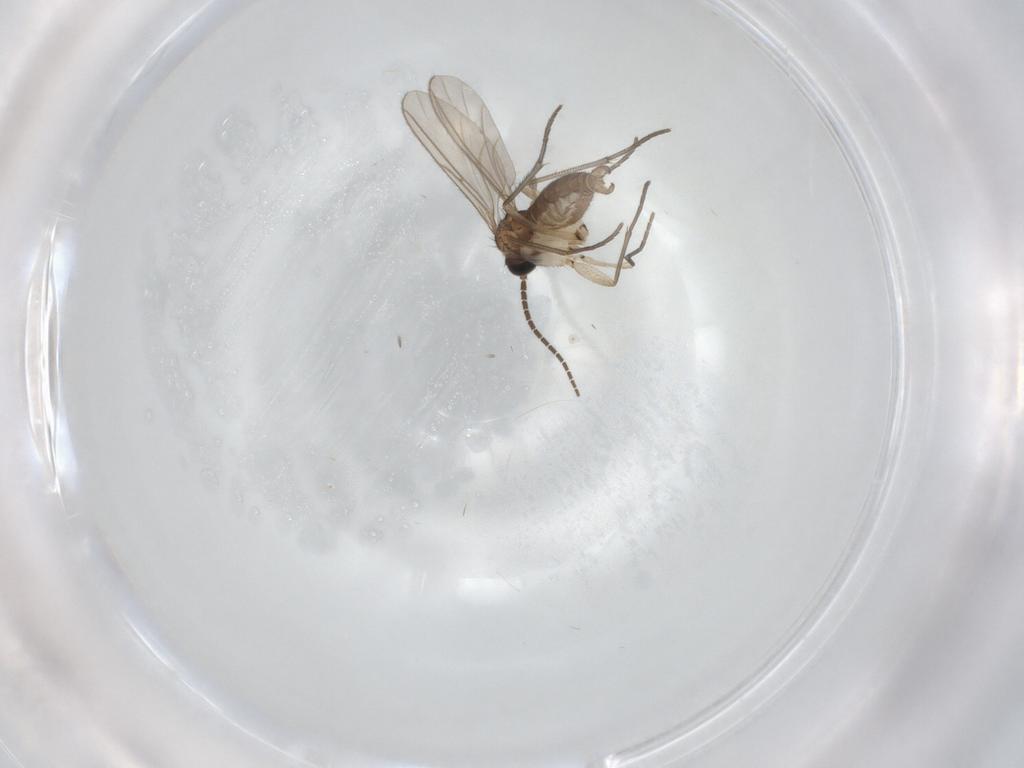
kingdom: Animalia
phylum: Arthropoda
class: Insecta
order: Diptera
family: Sciaridae
